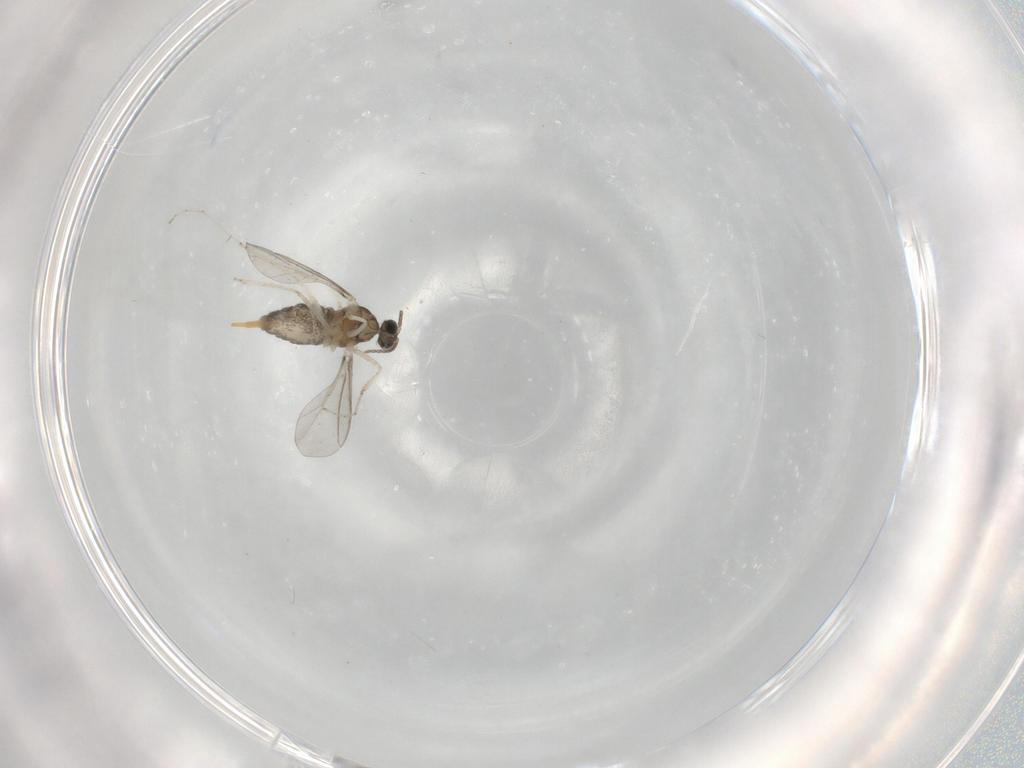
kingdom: Animalia
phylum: Arthropoda
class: Insecta
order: Diptera
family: Cecidomyiidae
